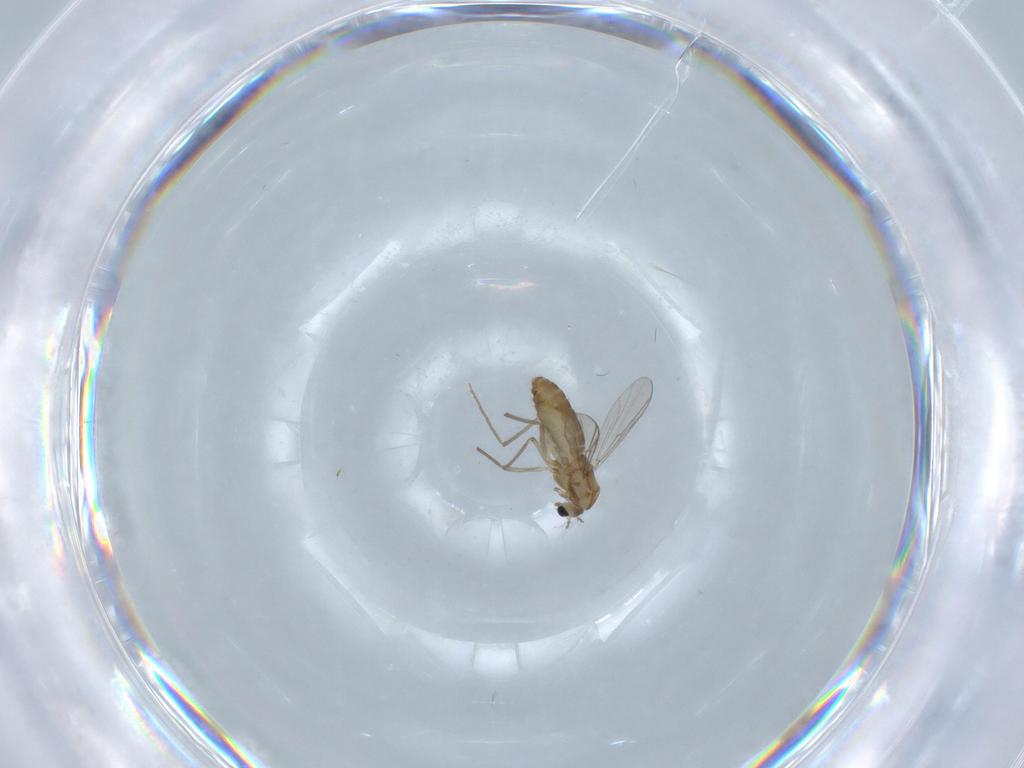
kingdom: Animalia
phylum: Arthropoda
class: Insecta
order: Diptera
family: Chironomidae
